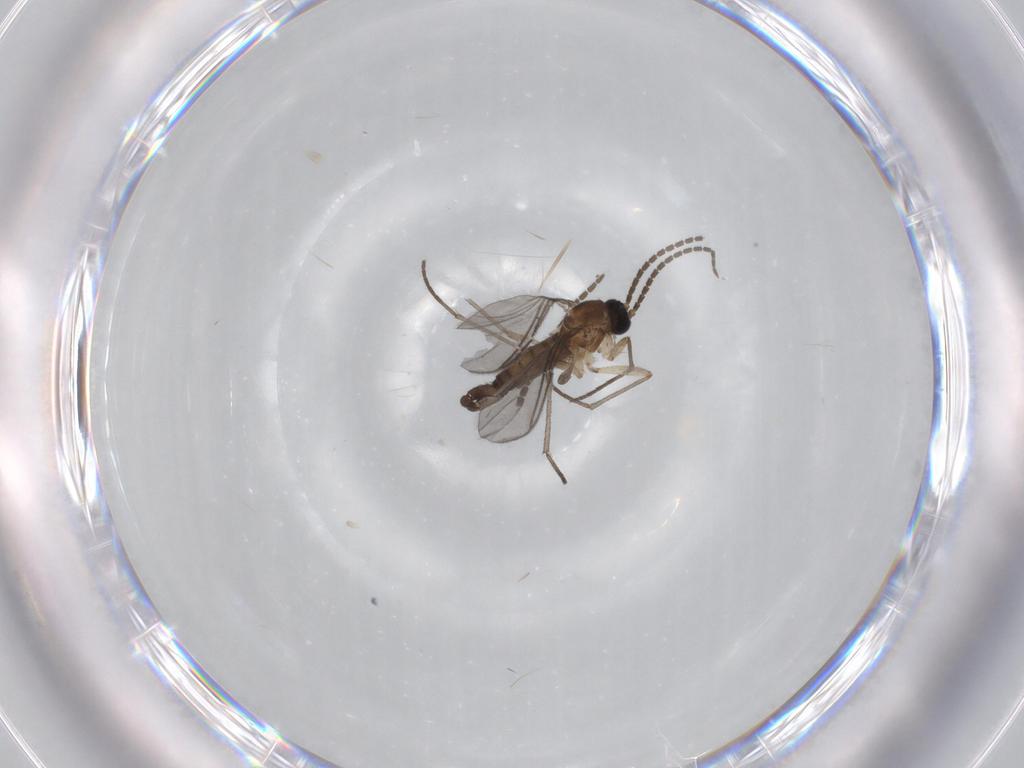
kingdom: Animalia
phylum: Arthropoda
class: Insecta
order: Diptera
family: Sciaridae
